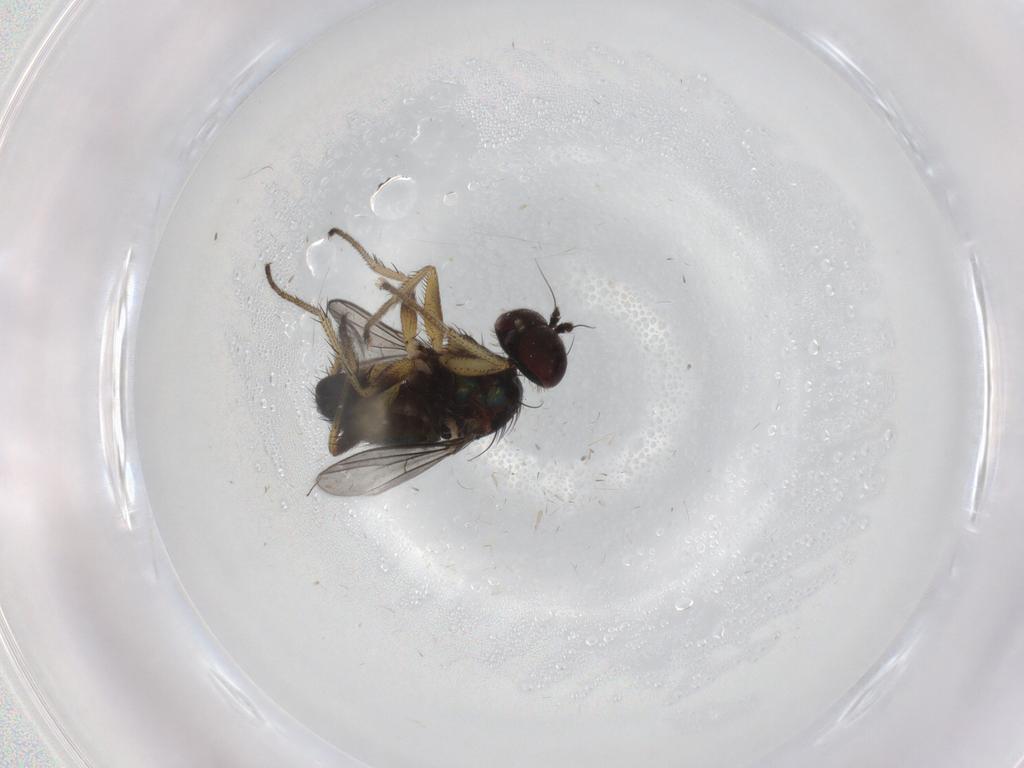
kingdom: Animalia
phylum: Arthropoda
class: Insecta
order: Diptera
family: Dolichopodidae
